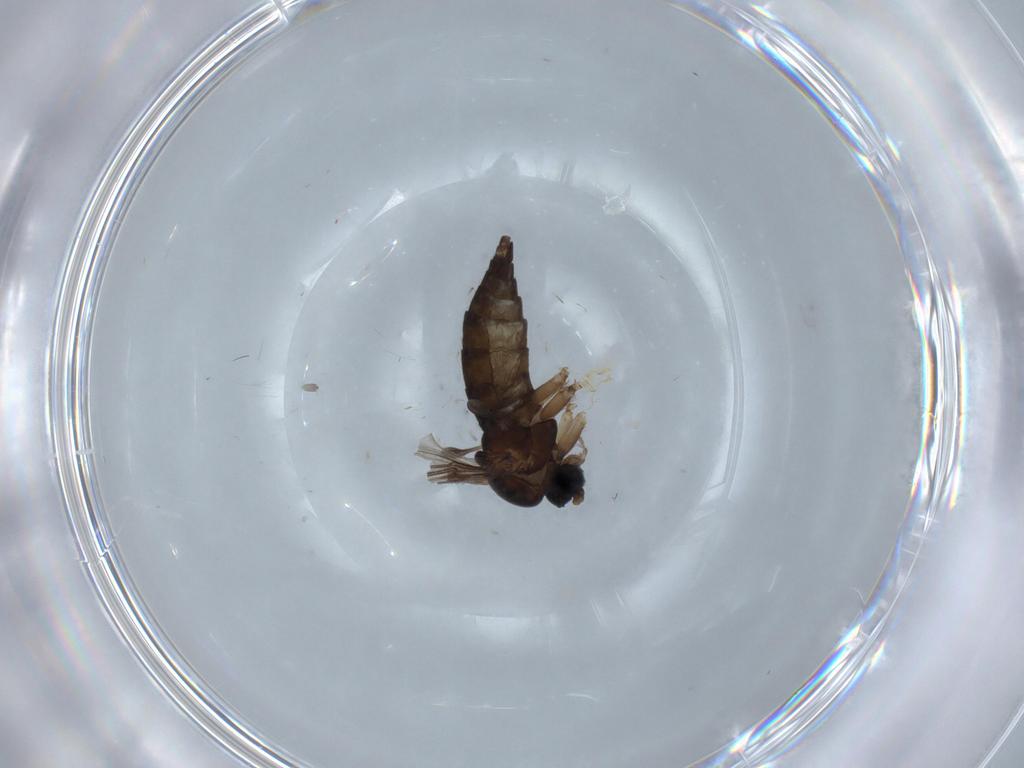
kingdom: Animalia
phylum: Arthropoda
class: Insecta
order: Diptera
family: Sciaridae
